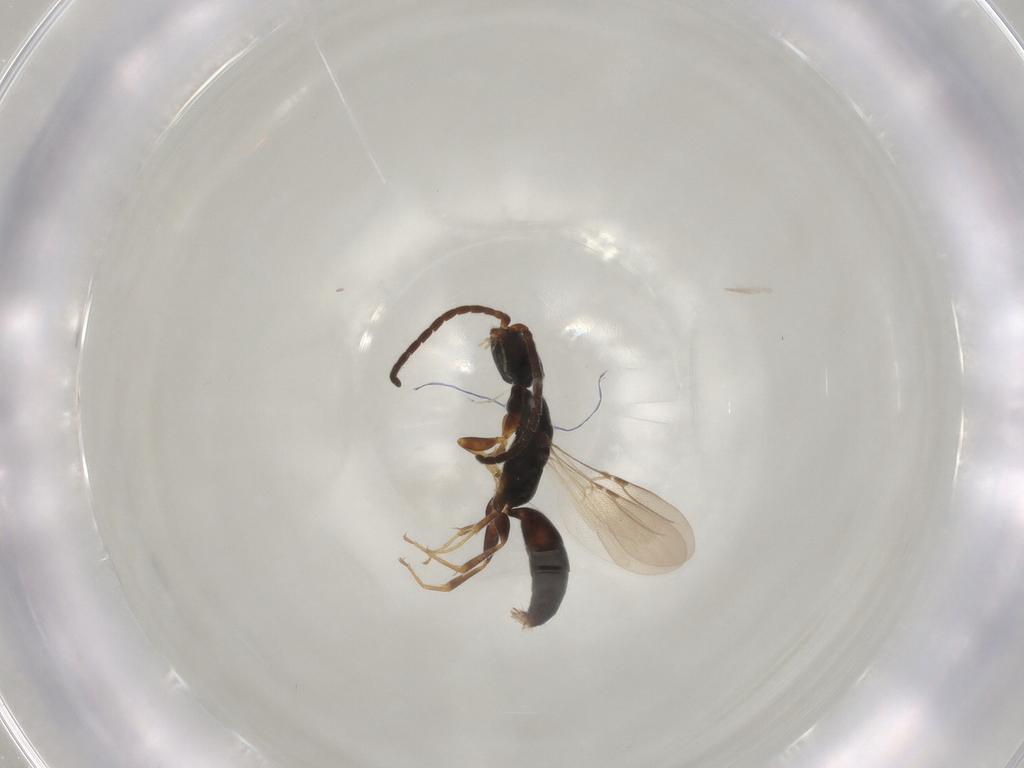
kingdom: Animalia
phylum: Arthropoda
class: Insecta
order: Hymenoptera
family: Bethylidae
